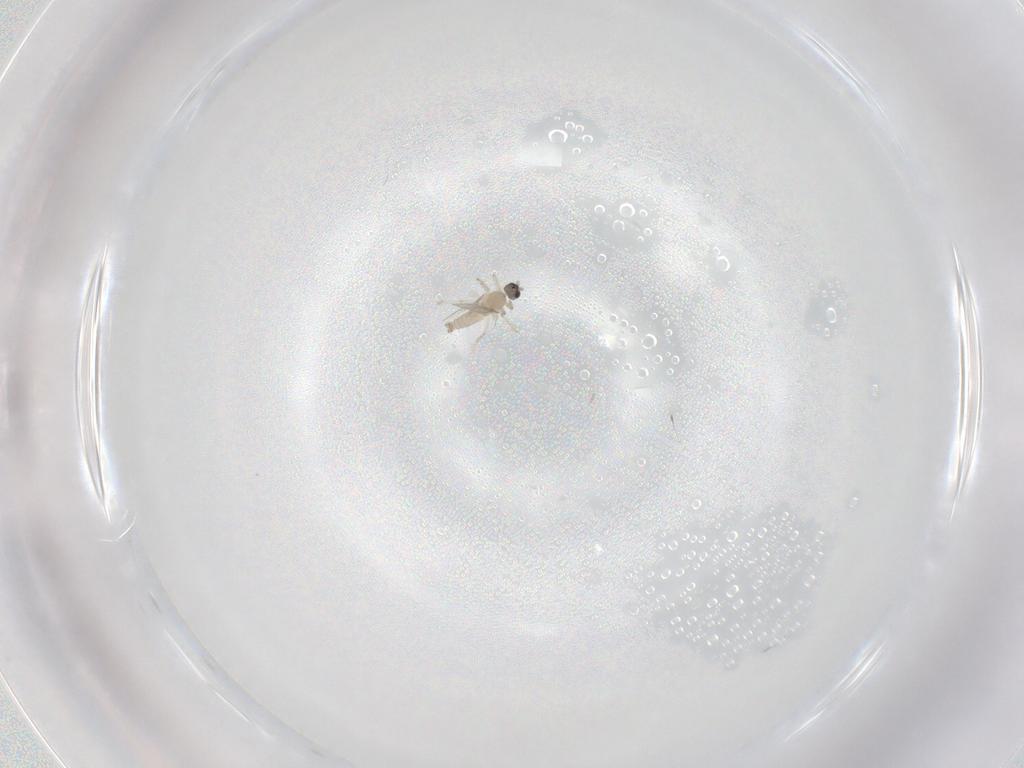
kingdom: Animalia
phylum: Arthropoda
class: Insecta
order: Diptera
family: Sciaridae
